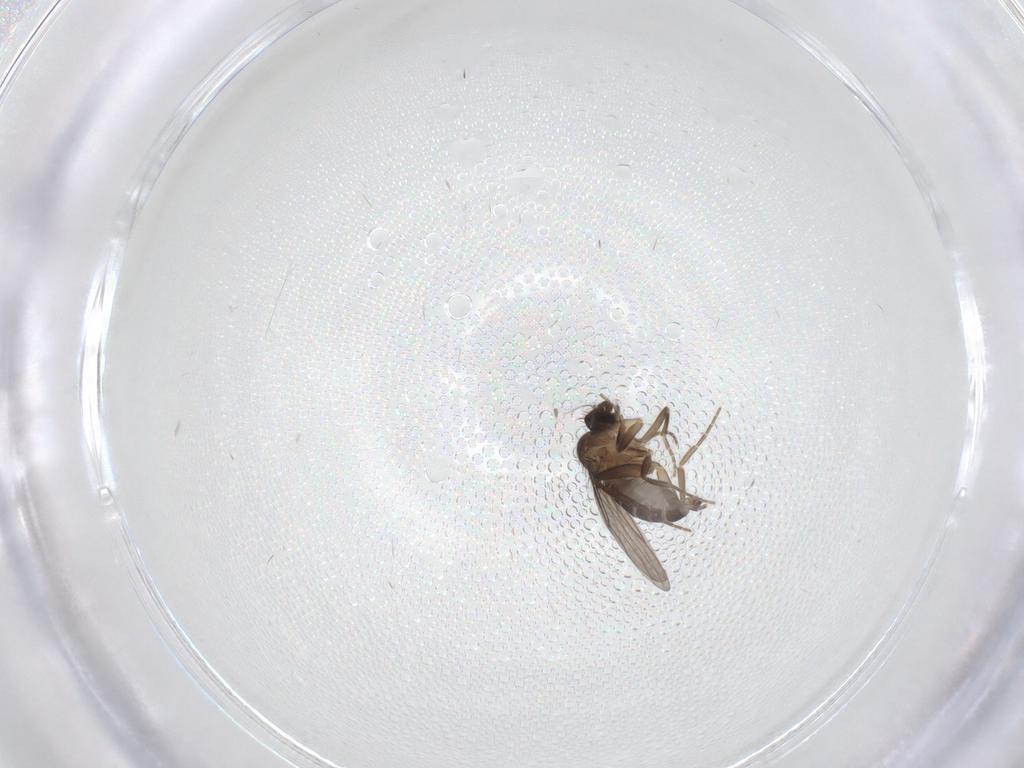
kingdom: Animalia
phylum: Arthropoda
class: Insecta
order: Diptera
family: Phoridae
